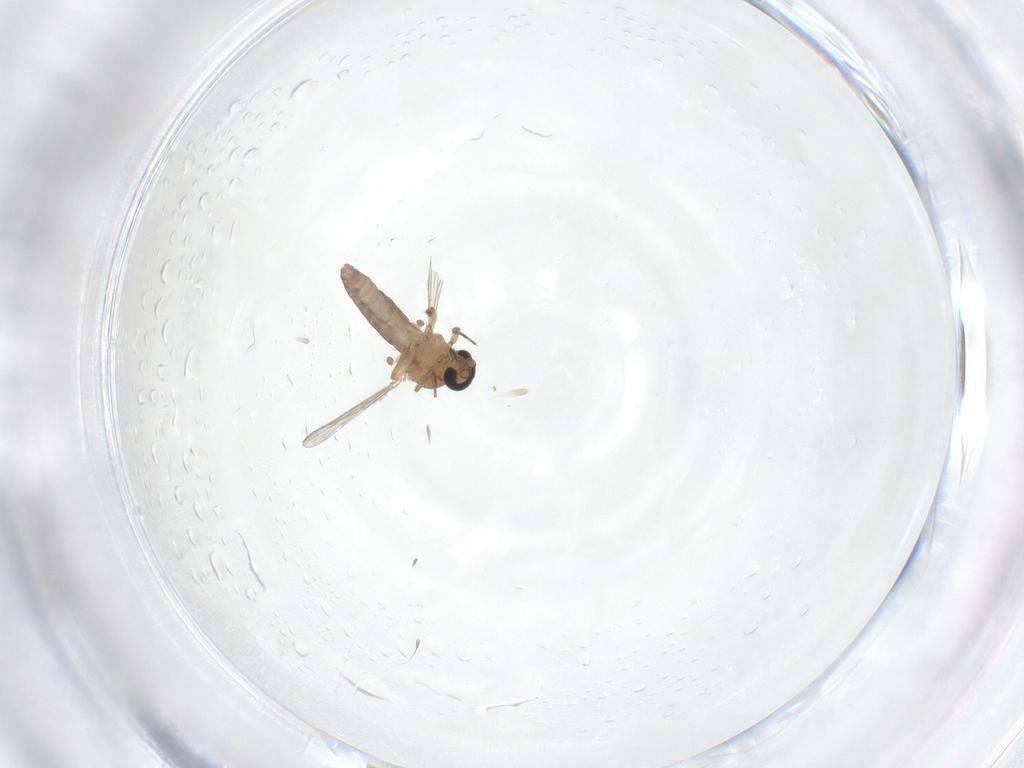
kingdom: Animalia
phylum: Arthropoda
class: Insecta
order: Diptera
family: Ceratopogonidae
